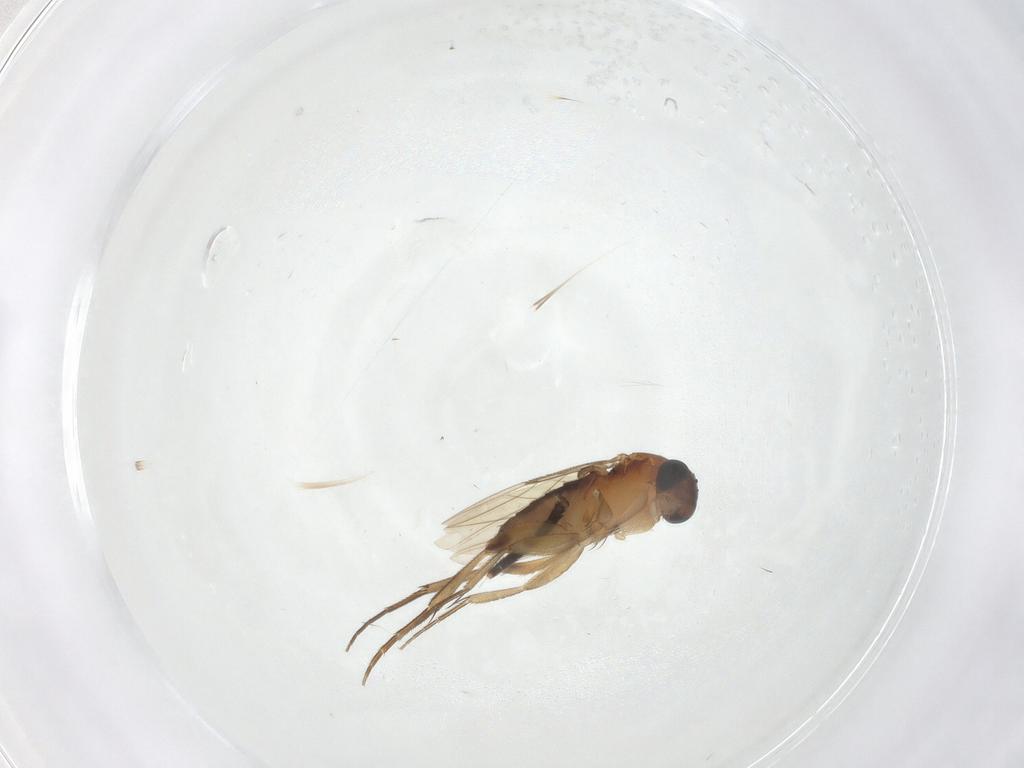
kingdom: Animalia
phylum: Arthropoda
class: Insecta
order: Diptera
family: Phoridae
